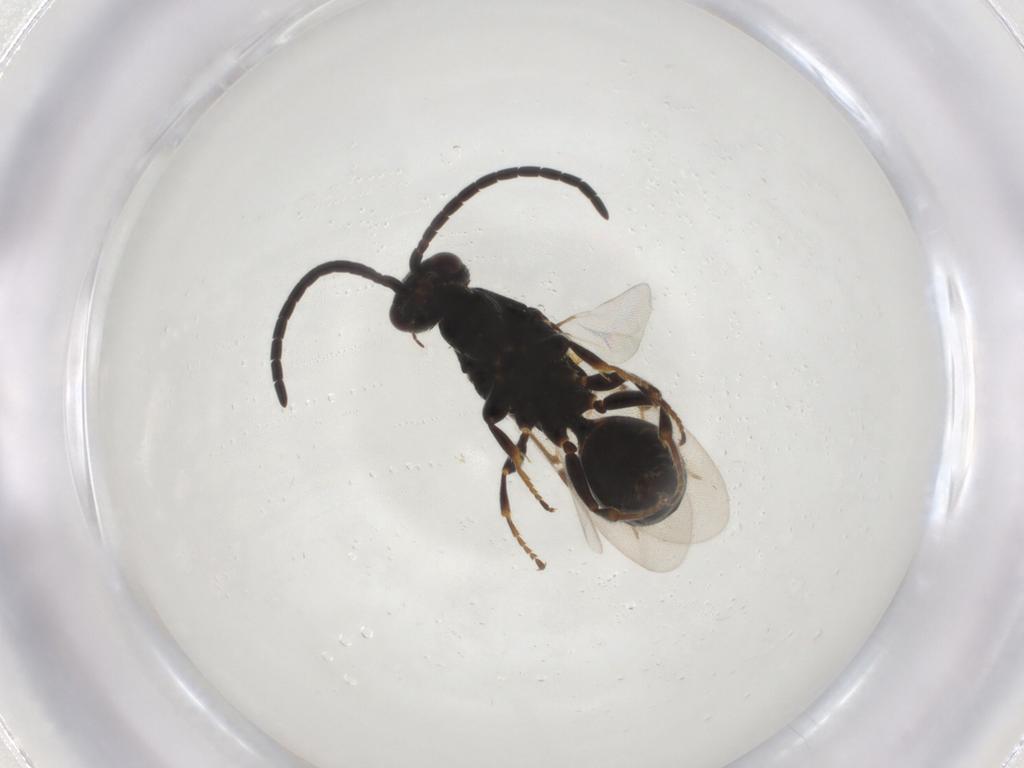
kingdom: Animalia
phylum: Arthropoda
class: Insecta
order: Hymenoptera
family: Bethylidae
